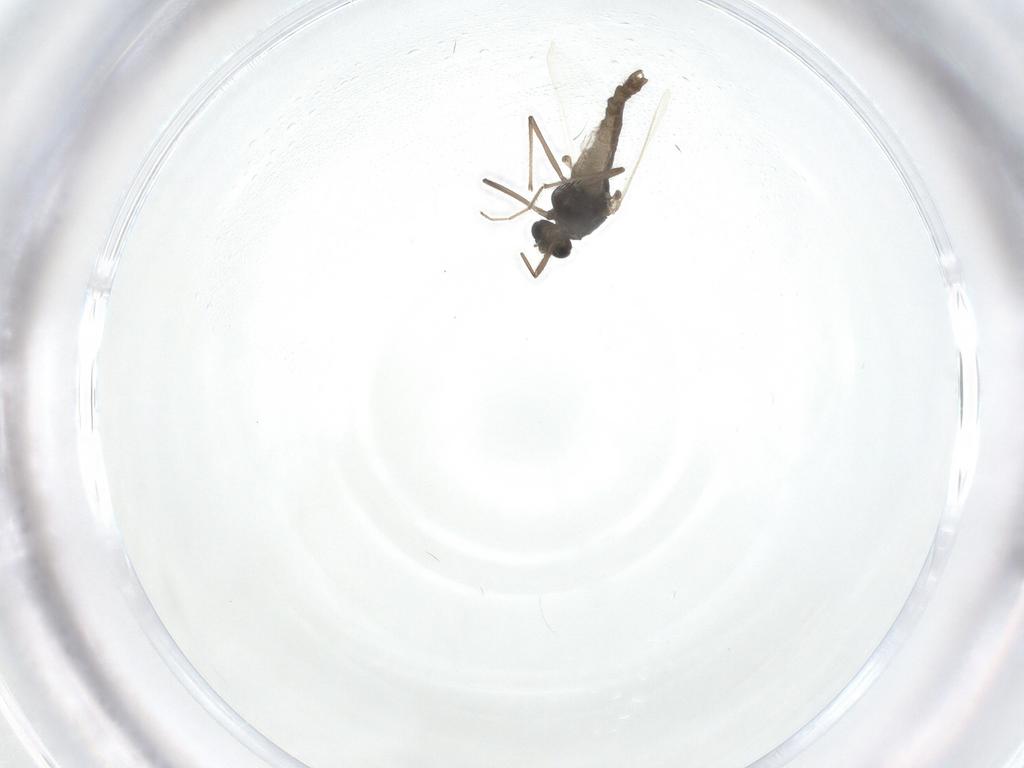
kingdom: Animalia
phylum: Arthropoda
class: Insecta
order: Diptera
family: Chironomidae
